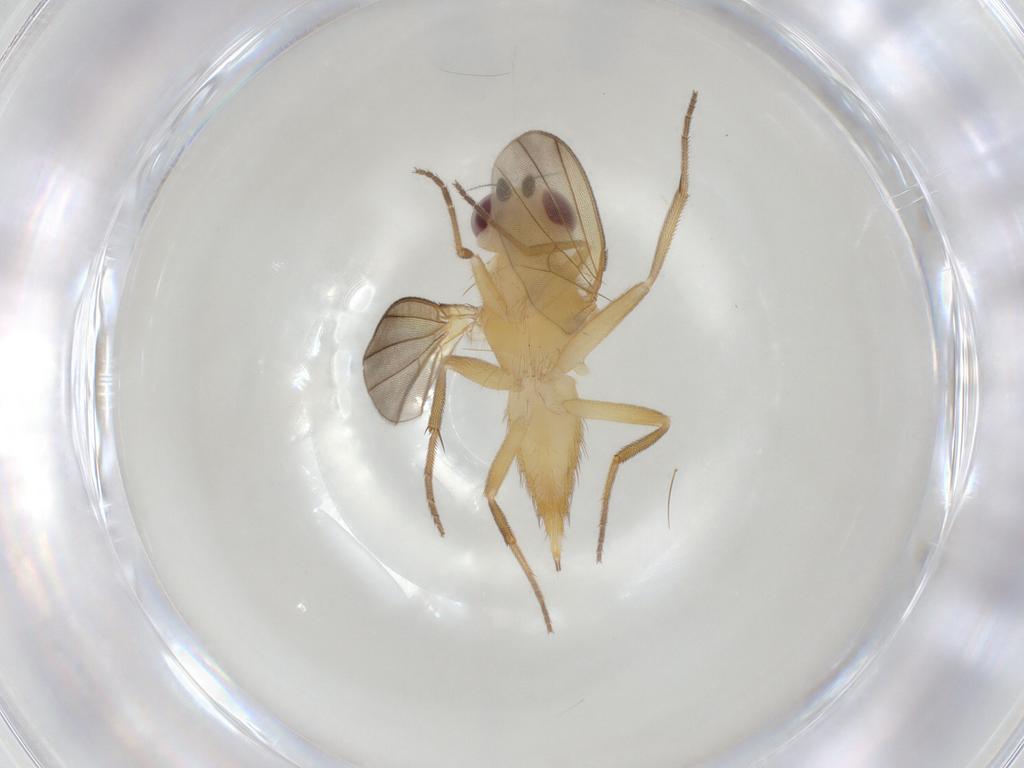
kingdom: Animalia
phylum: Arthropoda
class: Insecta
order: Diptera
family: Clusiidae
